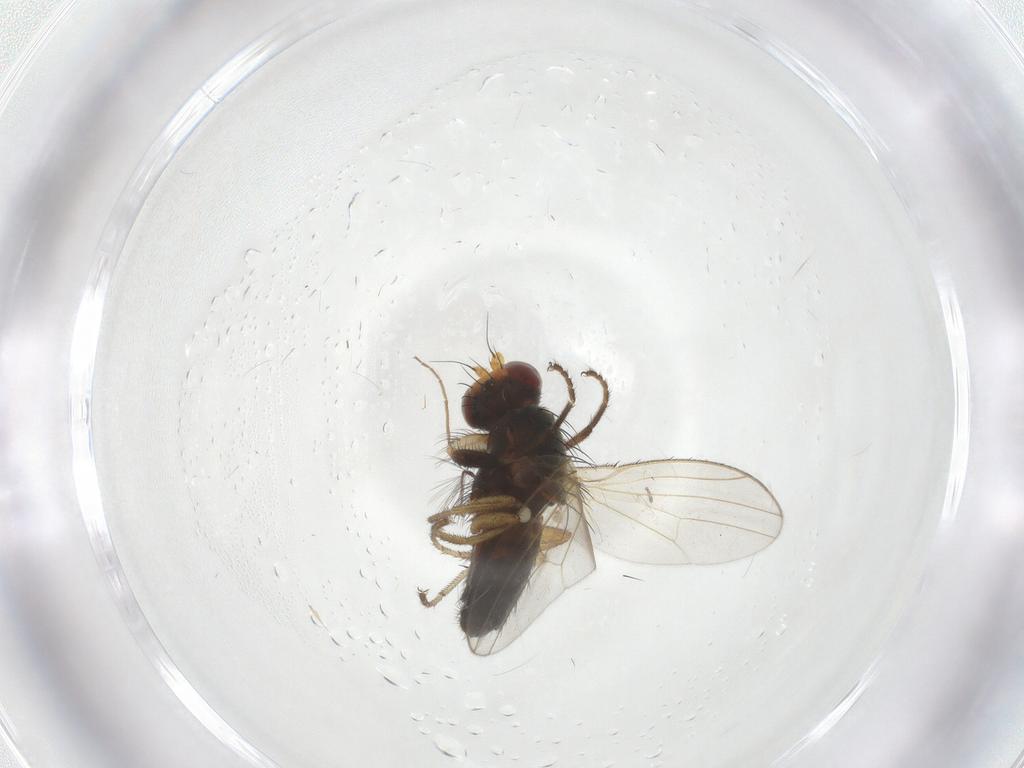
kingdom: Animalia
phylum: Arthropoda
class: Insecta
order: Diptera
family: Heleomyzidae
